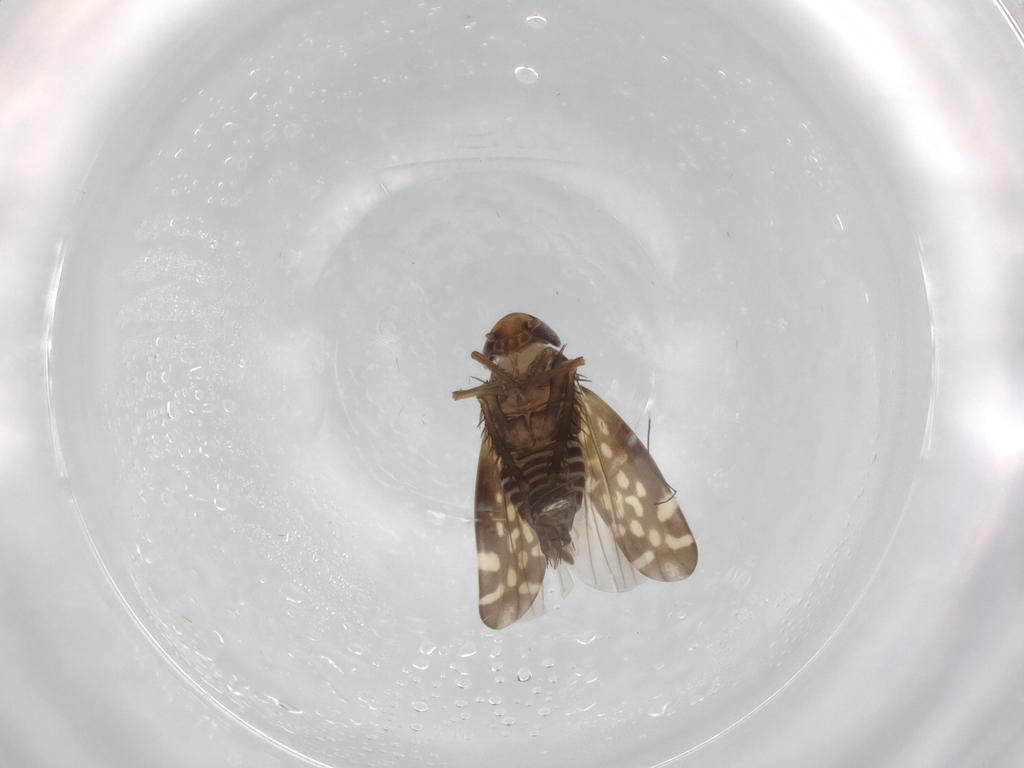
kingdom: Animalia
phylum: Arthropoda
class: Insecta
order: Hemiptera
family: Cicadellidae
